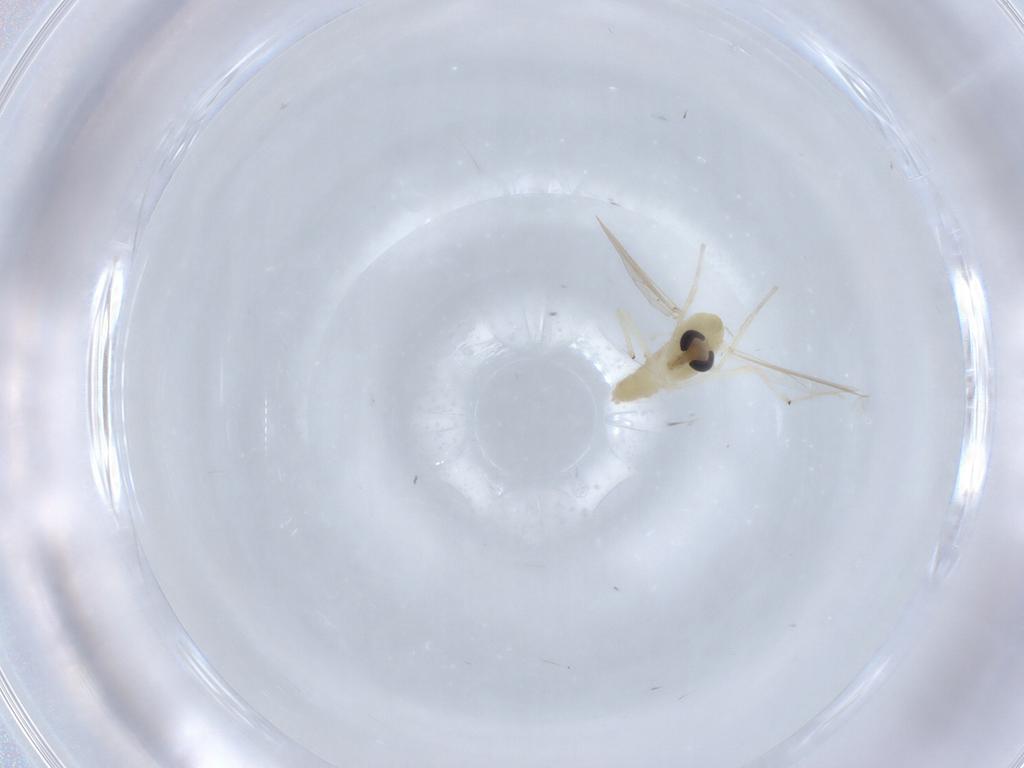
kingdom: Animalia
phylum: Arthropoda
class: Insecta
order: Diptera
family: Chironomidae
